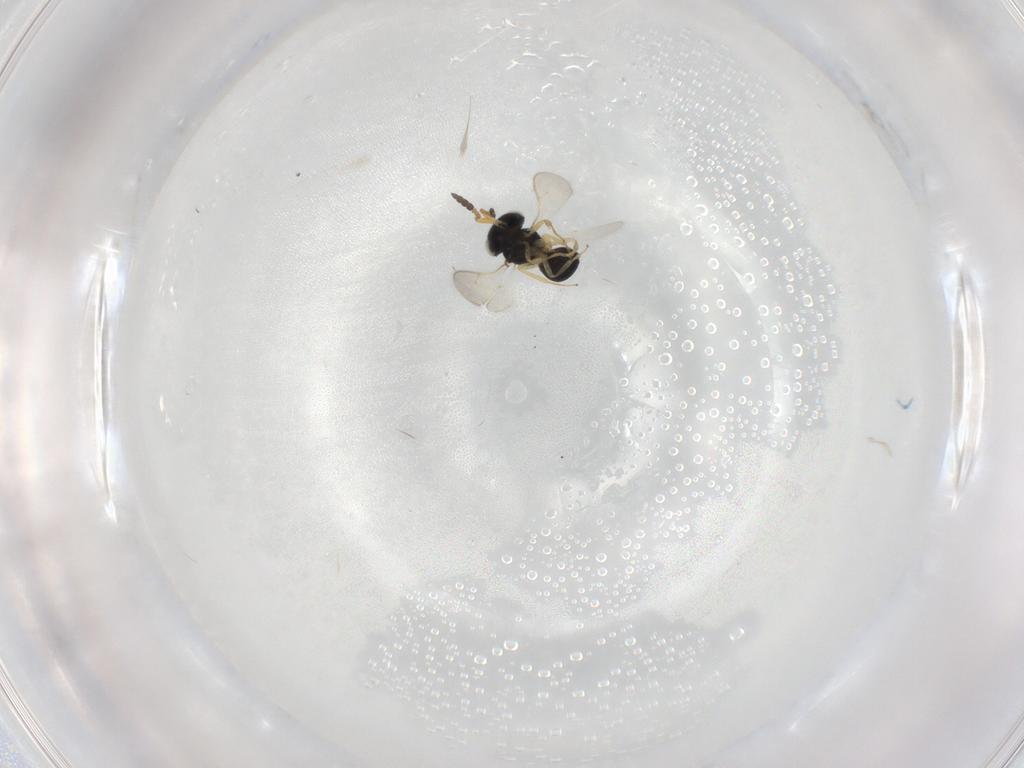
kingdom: Animalia
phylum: Arthropoda
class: Insecta
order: Hymenoptera
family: Scelionidae
